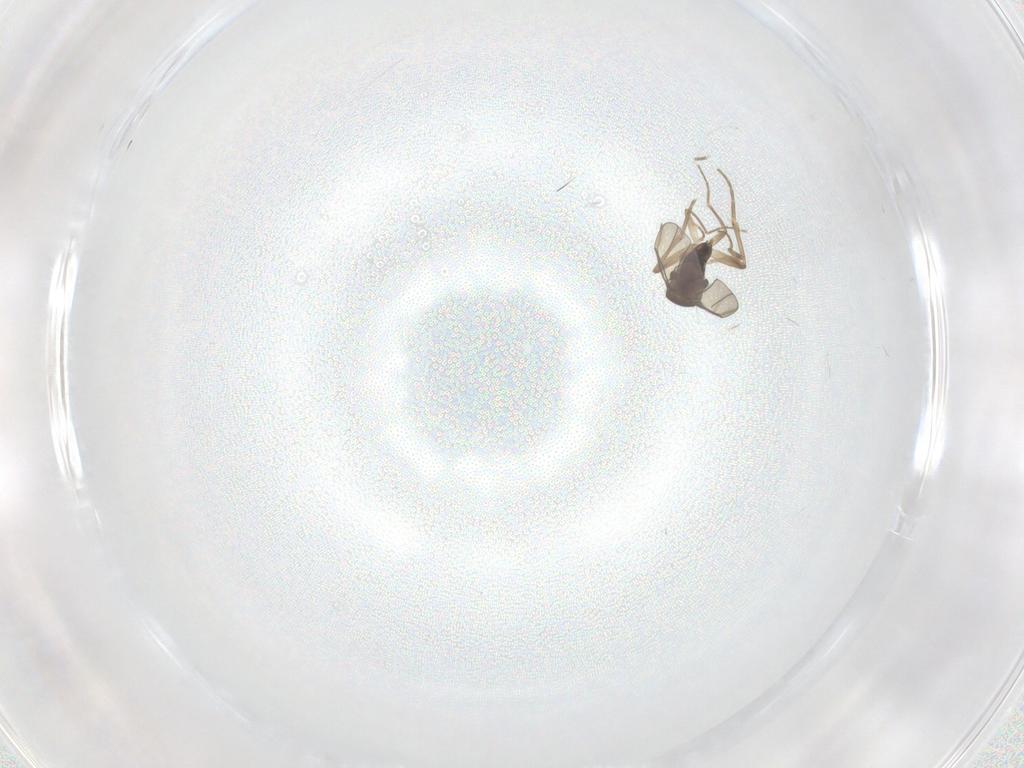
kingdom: Animalia
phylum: Arthropoda
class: Insecta
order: Diptera
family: Phoridae
